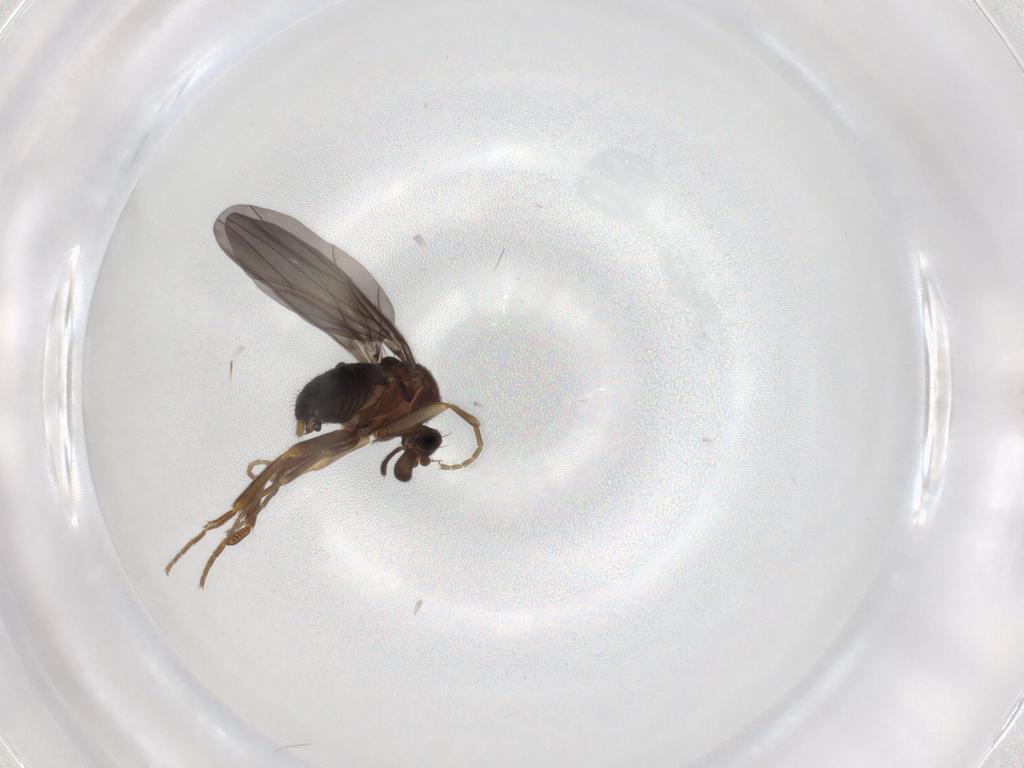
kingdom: Animalia
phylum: Arthropoda
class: Insecta
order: Diptera
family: Phoridae
